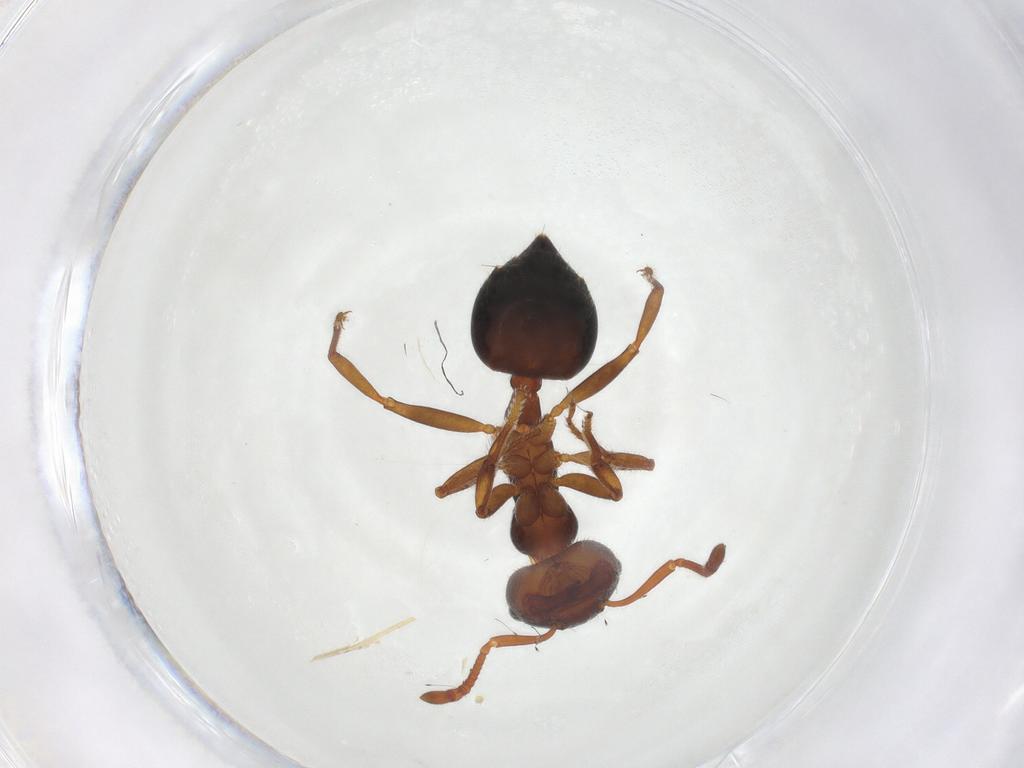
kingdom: Animalia
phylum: Arthropoda
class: Insecta
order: Hymenoptera
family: Formicidae
